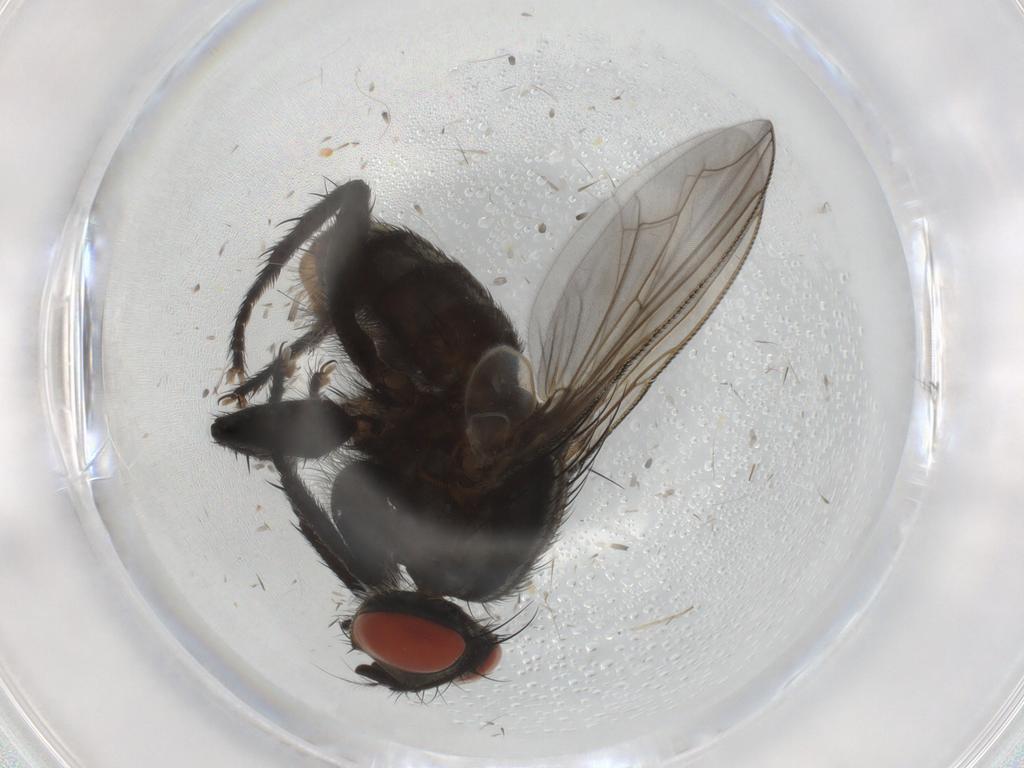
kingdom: Animalia
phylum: Arthropoda
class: Insecta
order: Diptera
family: Sarcophagidae
